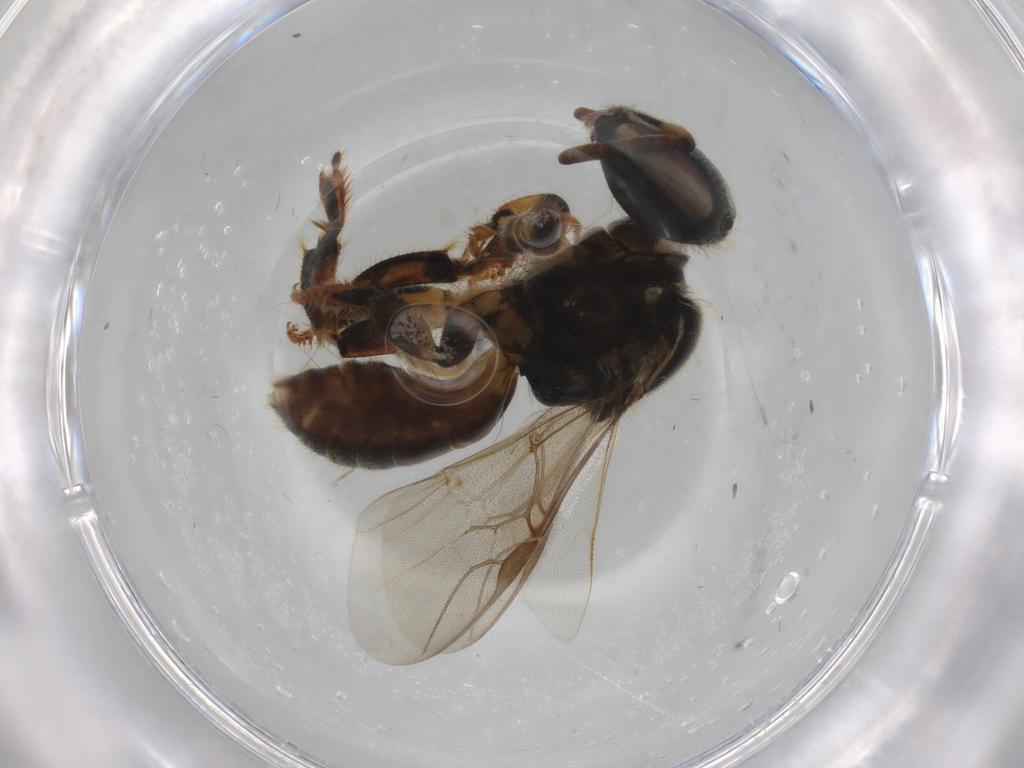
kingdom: Animalia
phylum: Arthropoda
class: Insecta
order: Hymenoptera
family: Apidae
